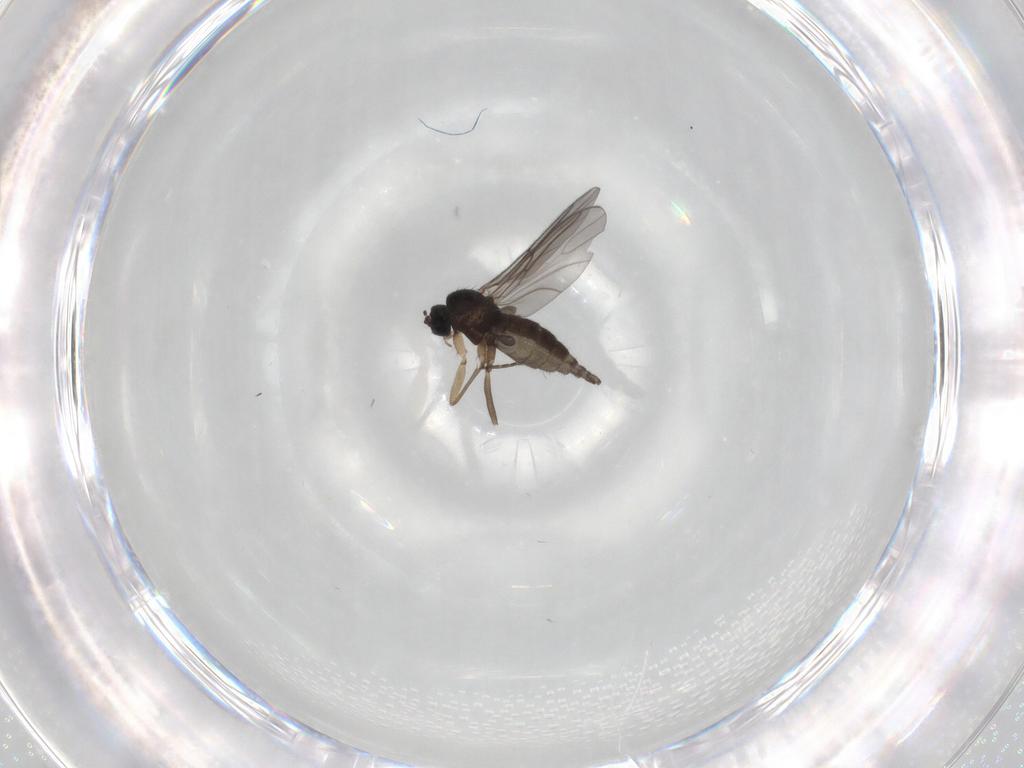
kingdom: Animalia
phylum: Arthropoda
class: Insecta
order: Diptera
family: Sciaridae
